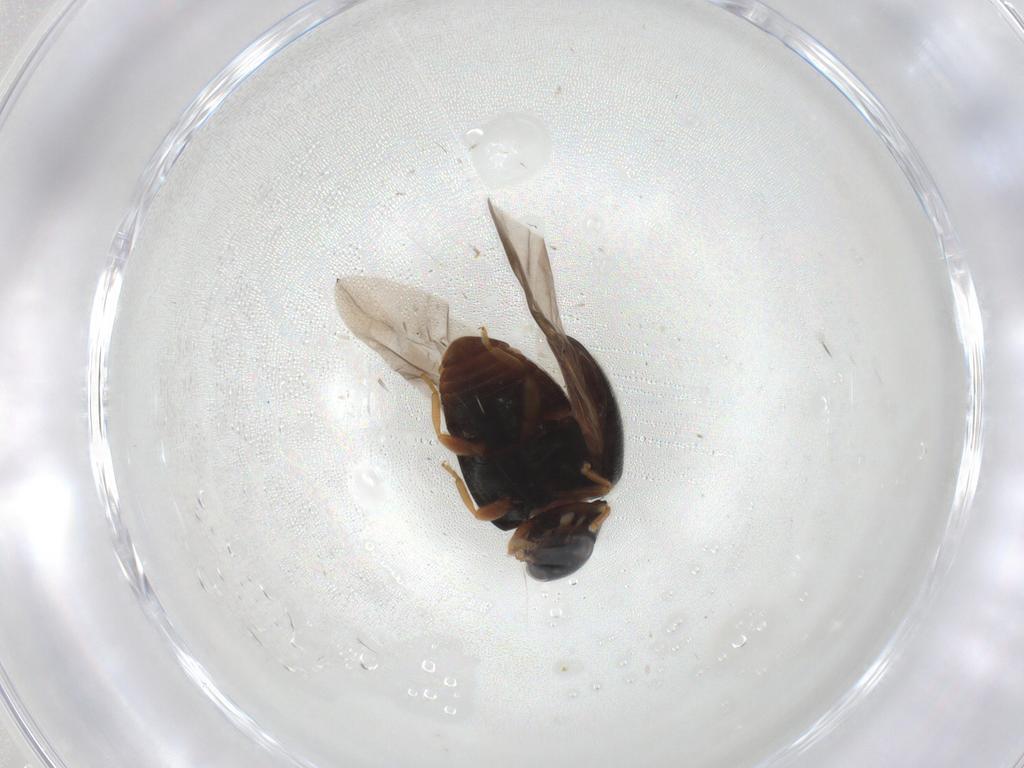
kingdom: Animalia
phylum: Arthropoda
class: Insecta
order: Coleoptera
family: Coccinellidae
